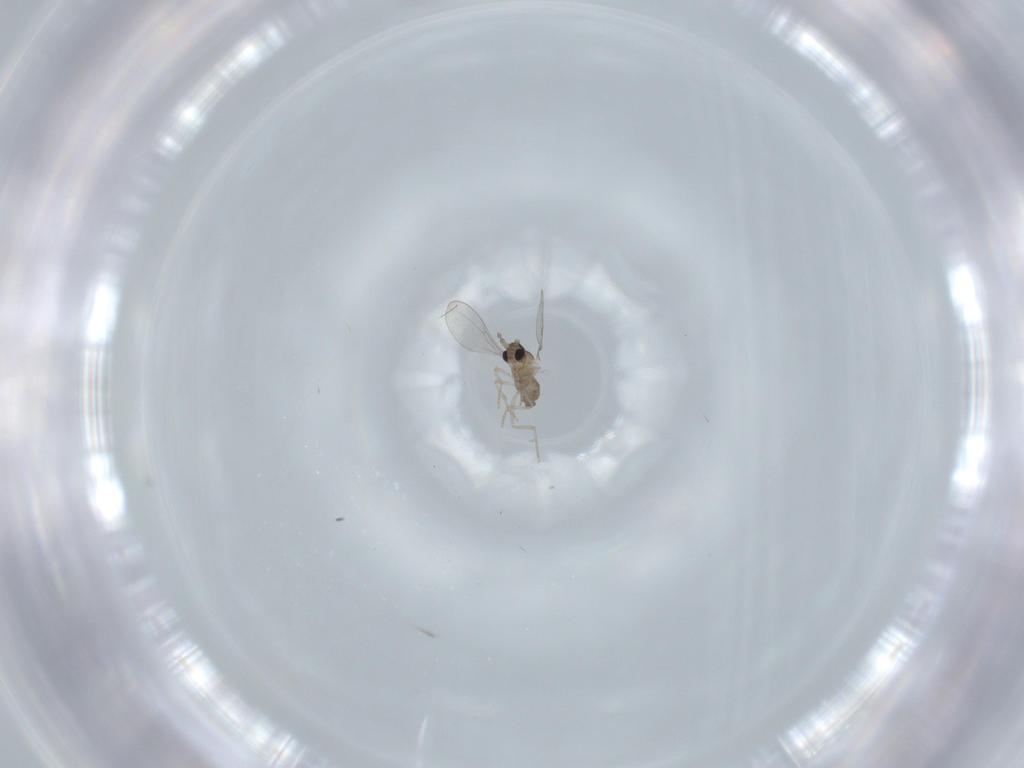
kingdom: Animalia
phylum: Arthropoda
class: Insecta
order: Diptera
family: Cecidomyiidae
